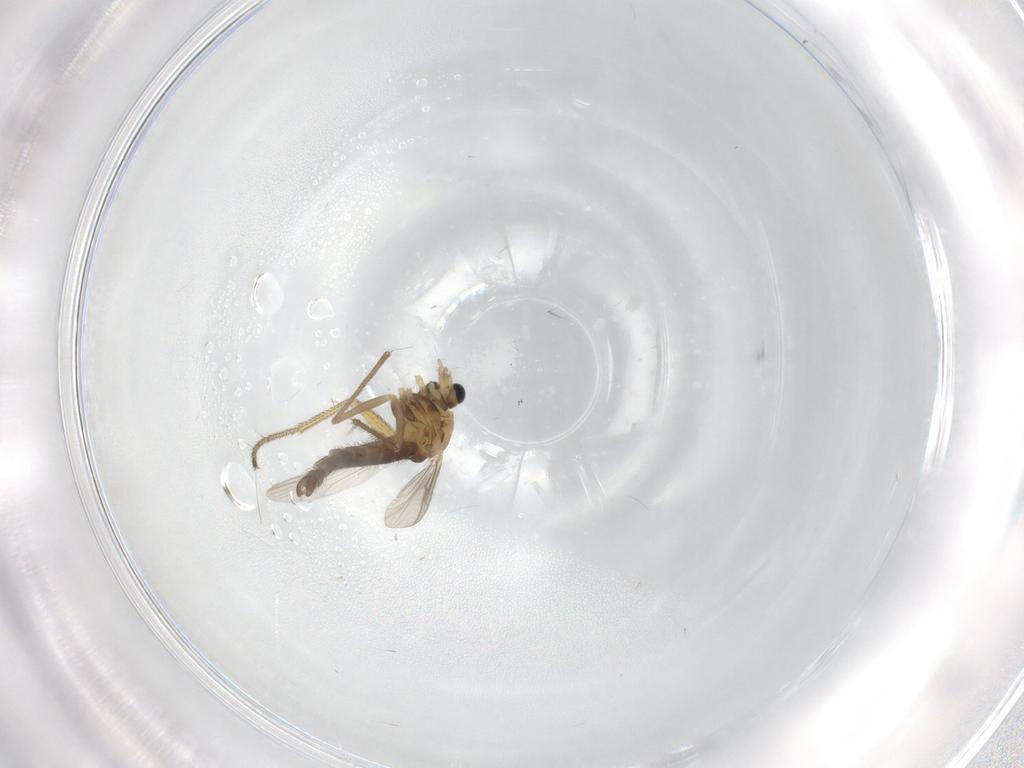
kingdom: Animalia
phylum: Arthropoda
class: Insecta
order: Diptera
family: Chironomidae
